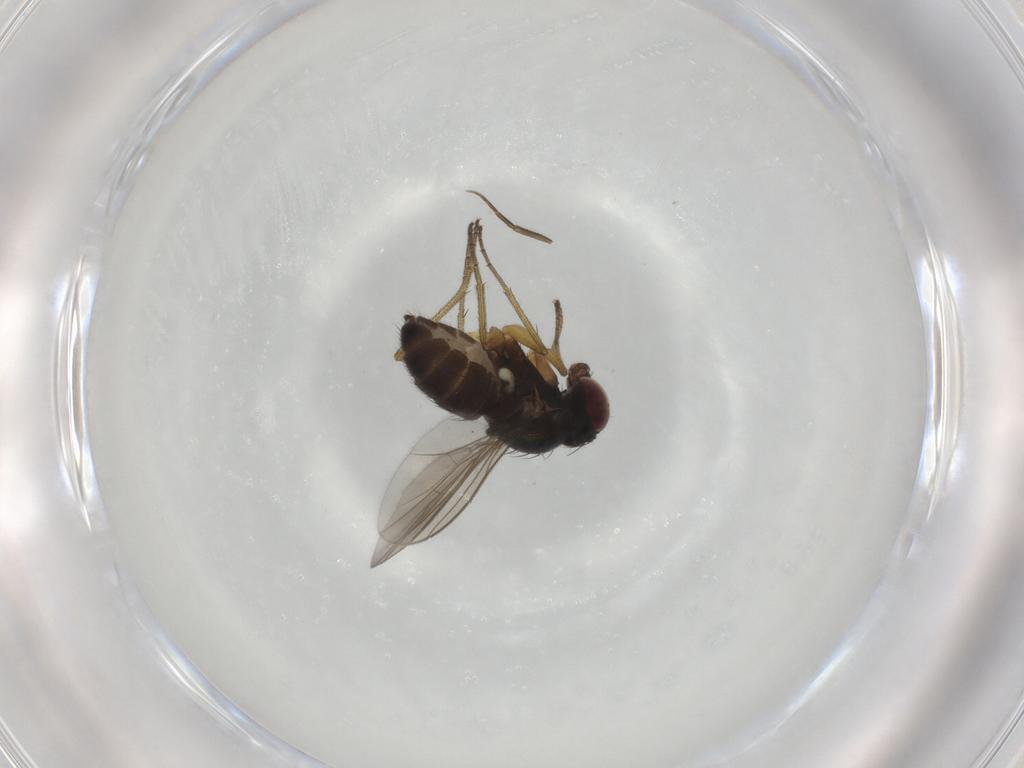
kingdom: Animalia
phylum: Arthropoda
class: Insecta
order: Diptera
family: Dolichopodidae
